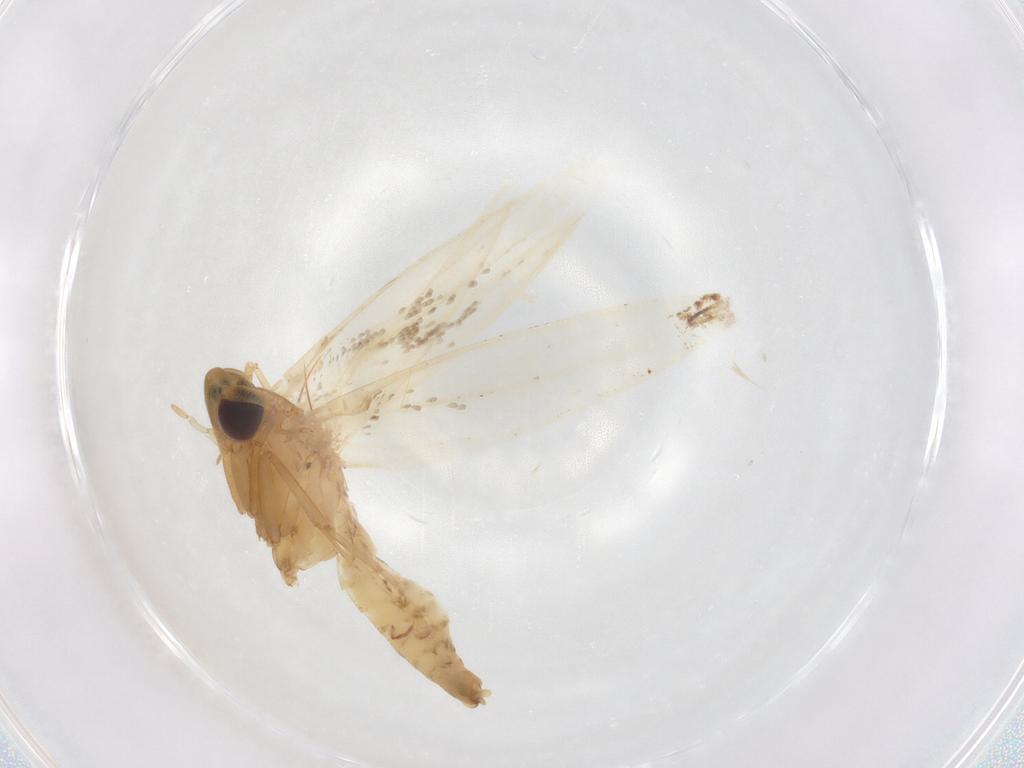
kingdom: Animalia
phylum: Arthropoda
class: Insecta
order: Lepidoptera
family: Tineidae
